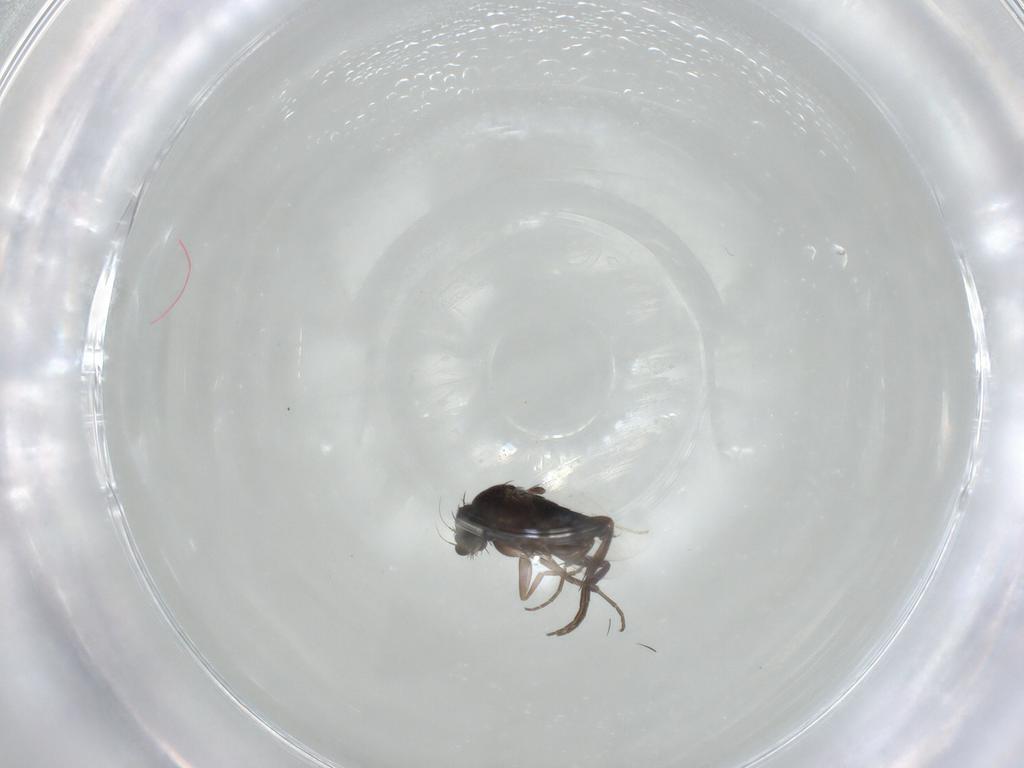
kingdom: Animalia
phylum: Arthropoda
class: Insecta
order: Diptera
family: Phoridae
